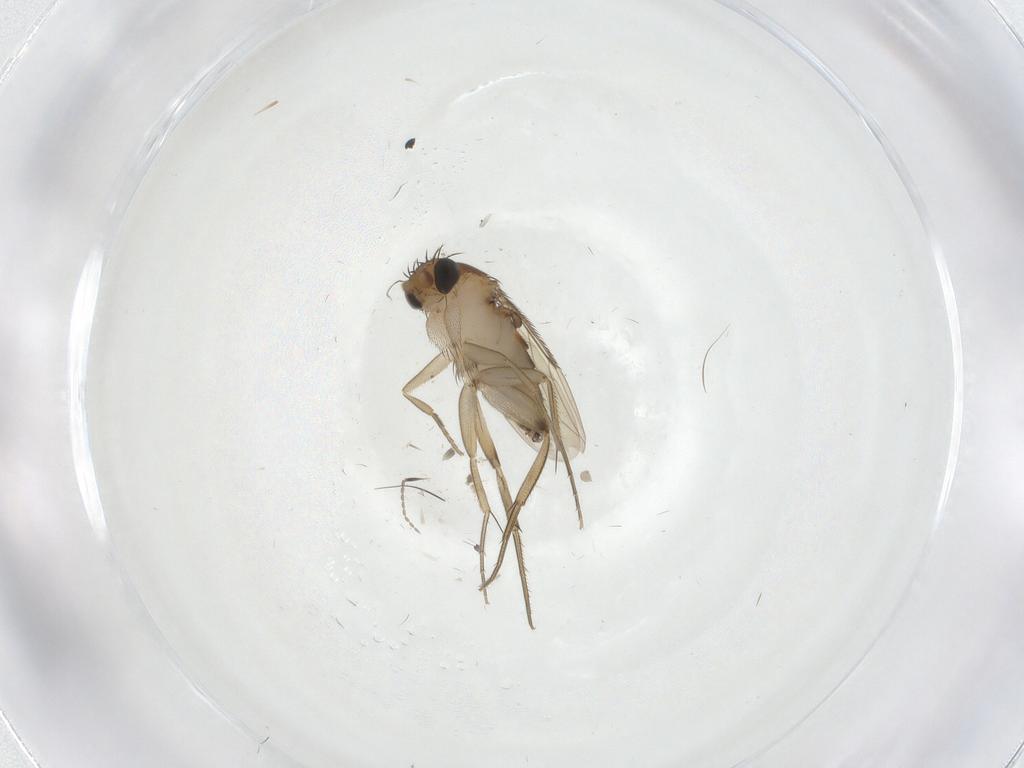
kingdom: Animalia
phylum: Arthropoda
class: Insecta
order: Diptera
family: Phoridae
